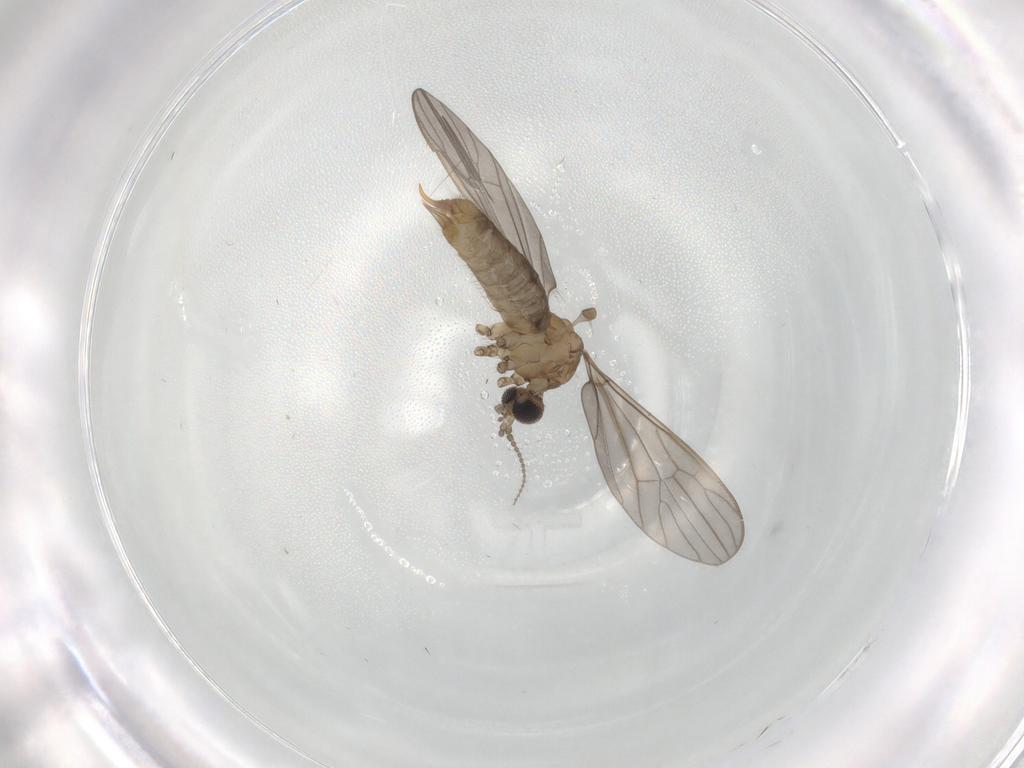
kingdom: Animalia
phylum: Arthropoda
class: Insecta
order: Diptera
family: Limoniidae
